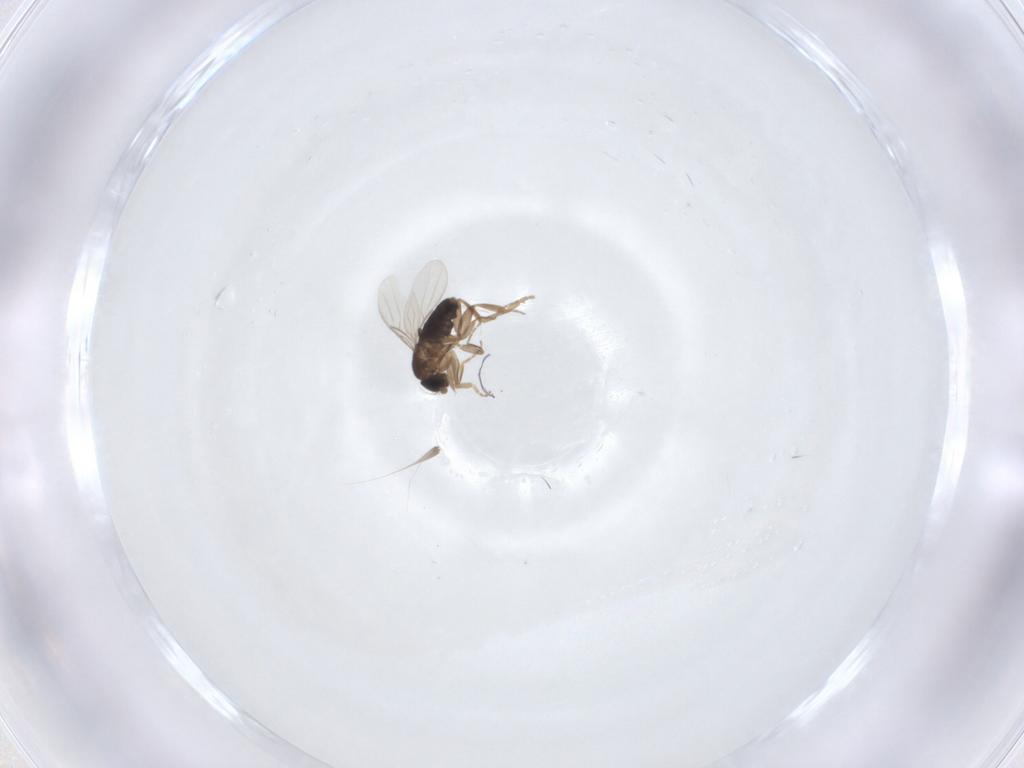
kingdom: Animalia
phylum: Arthropoda
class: Insecta
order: Diptera
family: Phoridae
